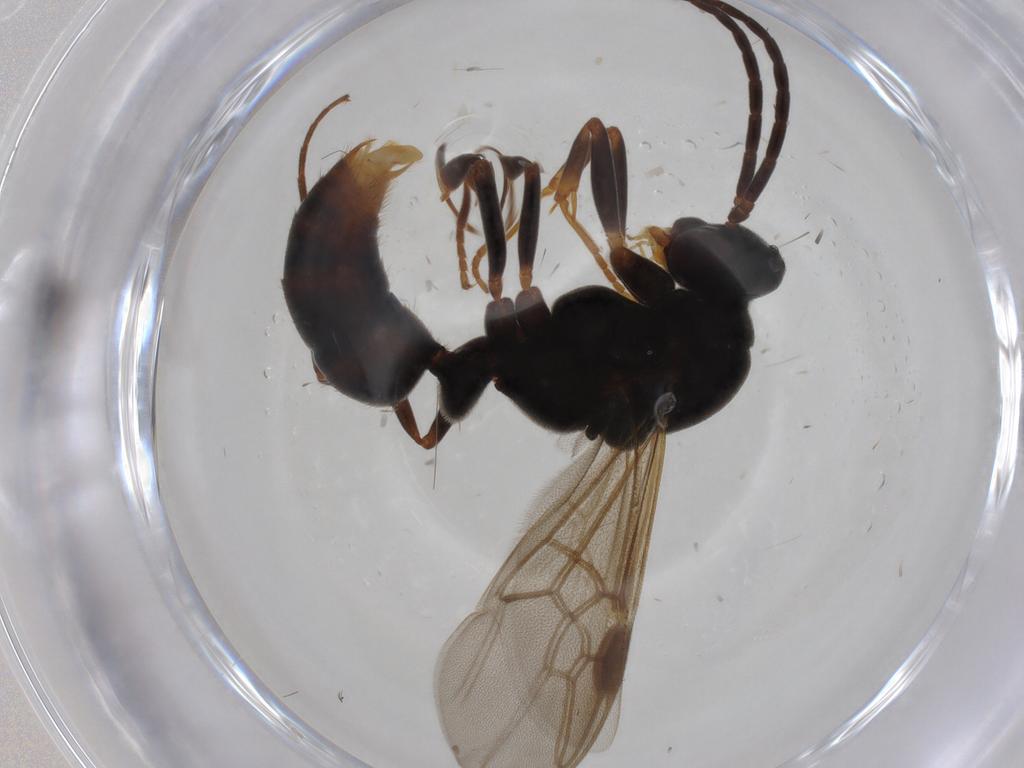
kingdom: Animalia
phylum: Arthropoda
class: Insecta
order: Hymenoptera
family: Formicidae
